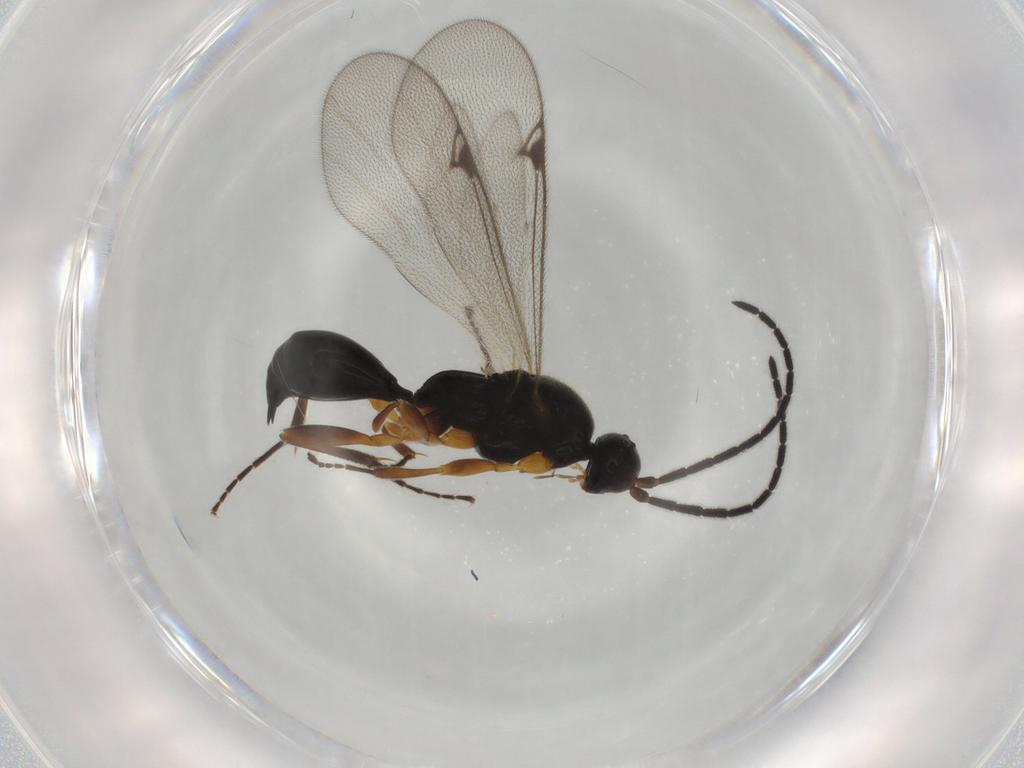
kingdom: Animalia
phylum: Arthropoda
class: Insecta
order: Hymenoptera
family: Proctotrupidae
